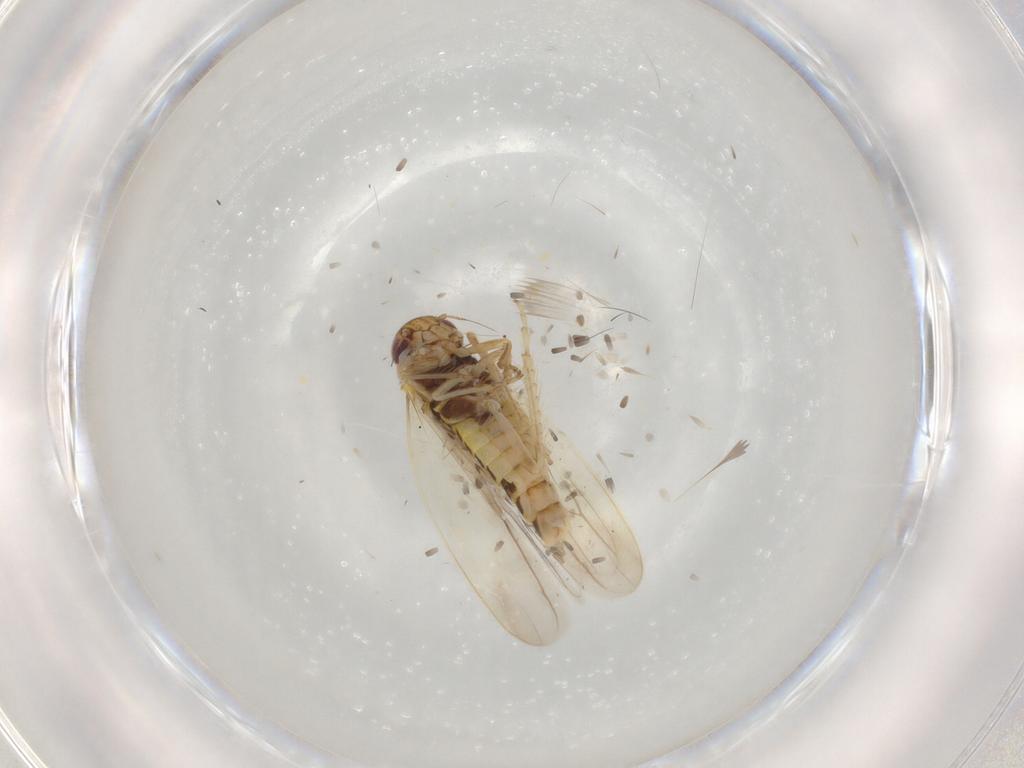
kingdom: Animalia
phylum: Arthropoda
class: Insecta
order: Hemiptera
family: Cicadellidae
